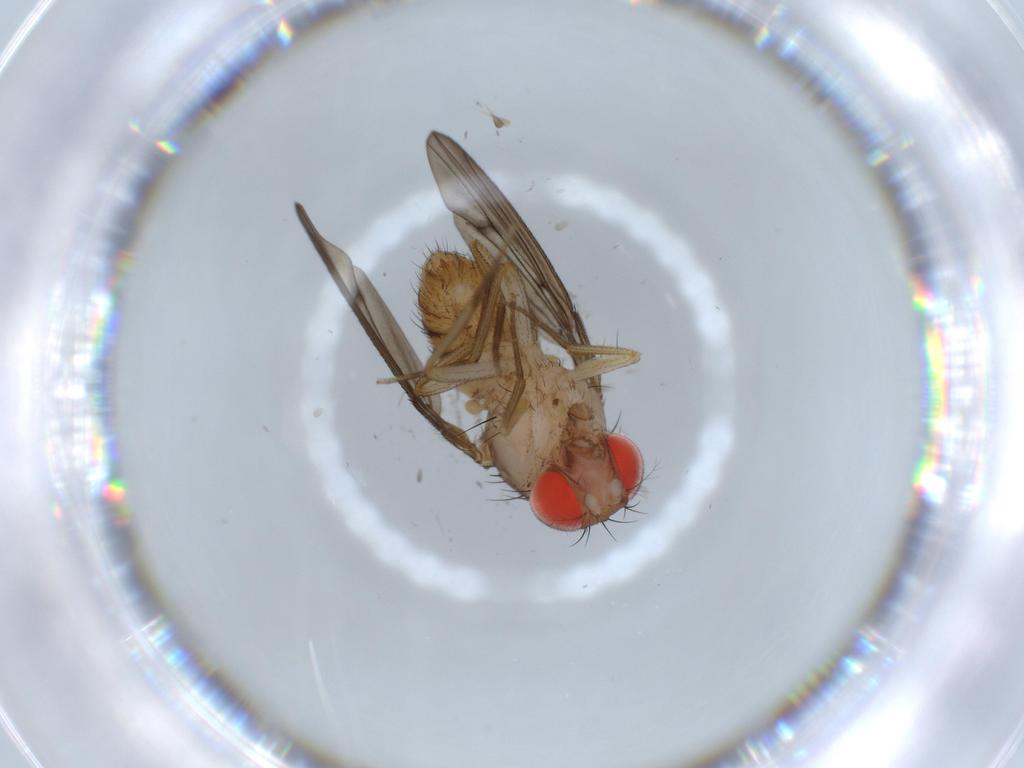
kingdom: Animalia
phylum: Arthropoda
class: Insecta
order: Diptera
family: Drosophilidae
